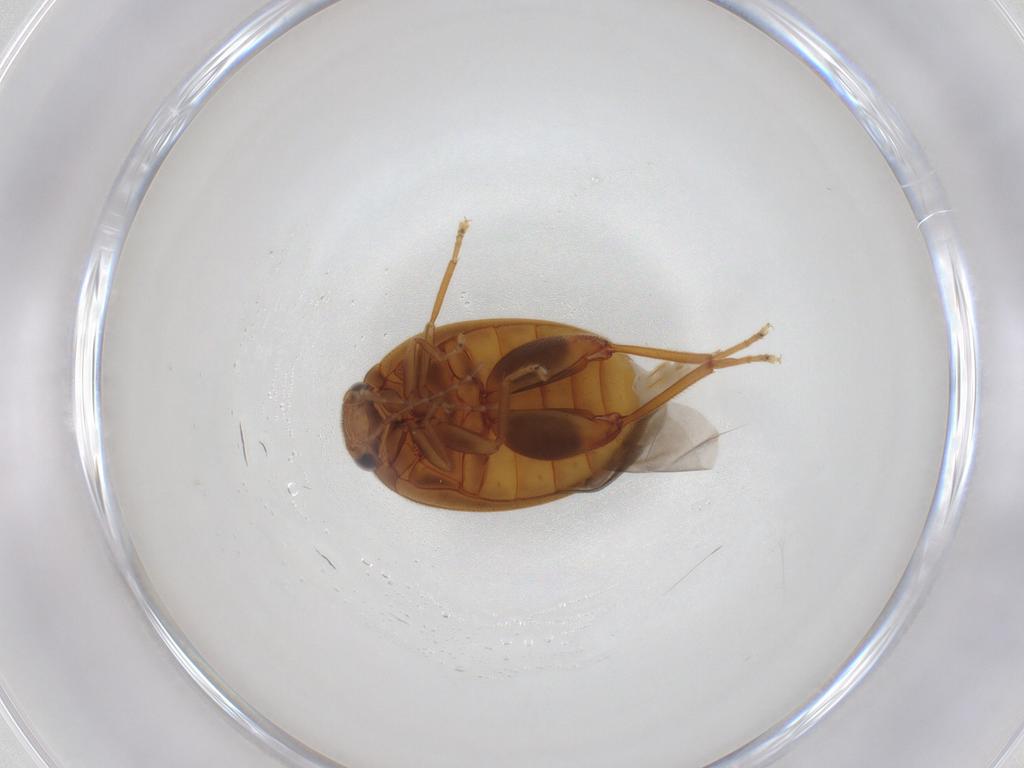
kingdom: Animalia
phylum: Arthropoda
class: Insecta
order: Coleoptera
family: Scirtidae
